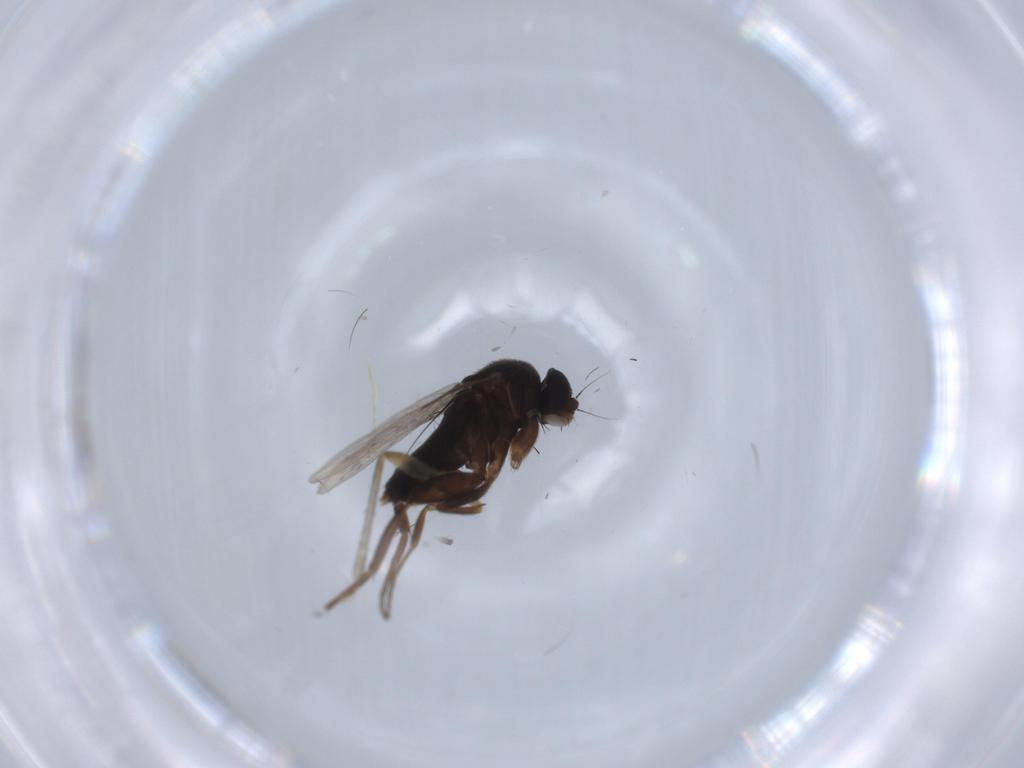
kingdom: Animalia
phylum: Arthropoda
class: Insecta
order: Diptera
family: Phoridae
